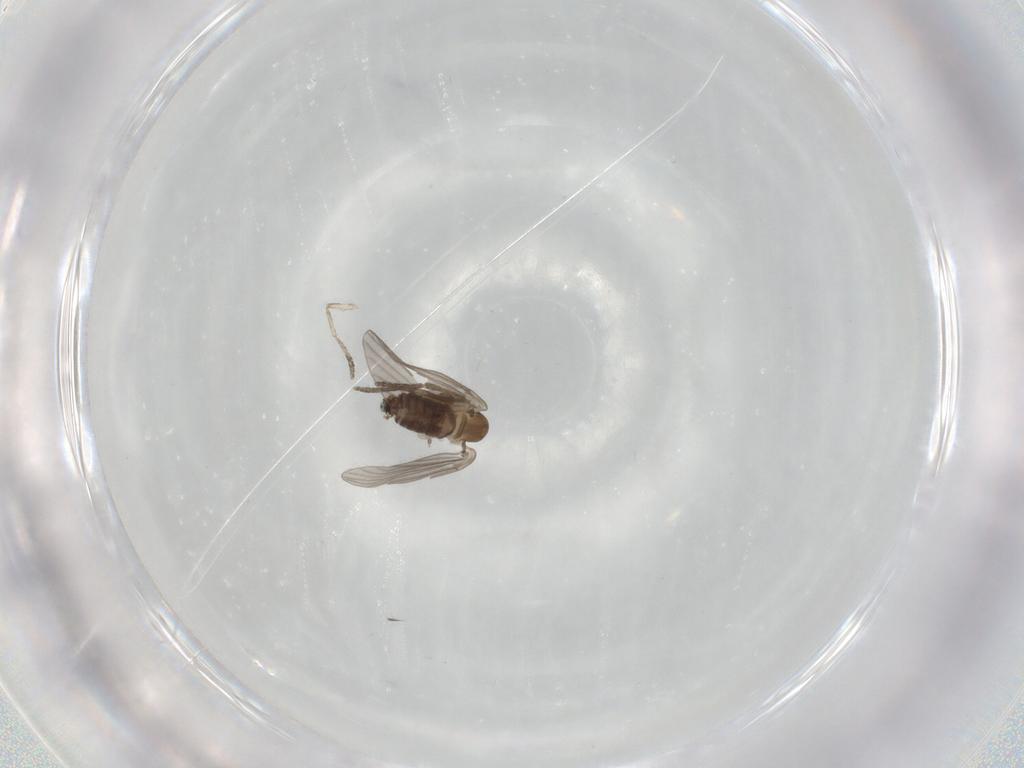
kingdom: Animalia
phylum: Arthropoda
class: Insecta
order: Diptera
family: Psychodidae
